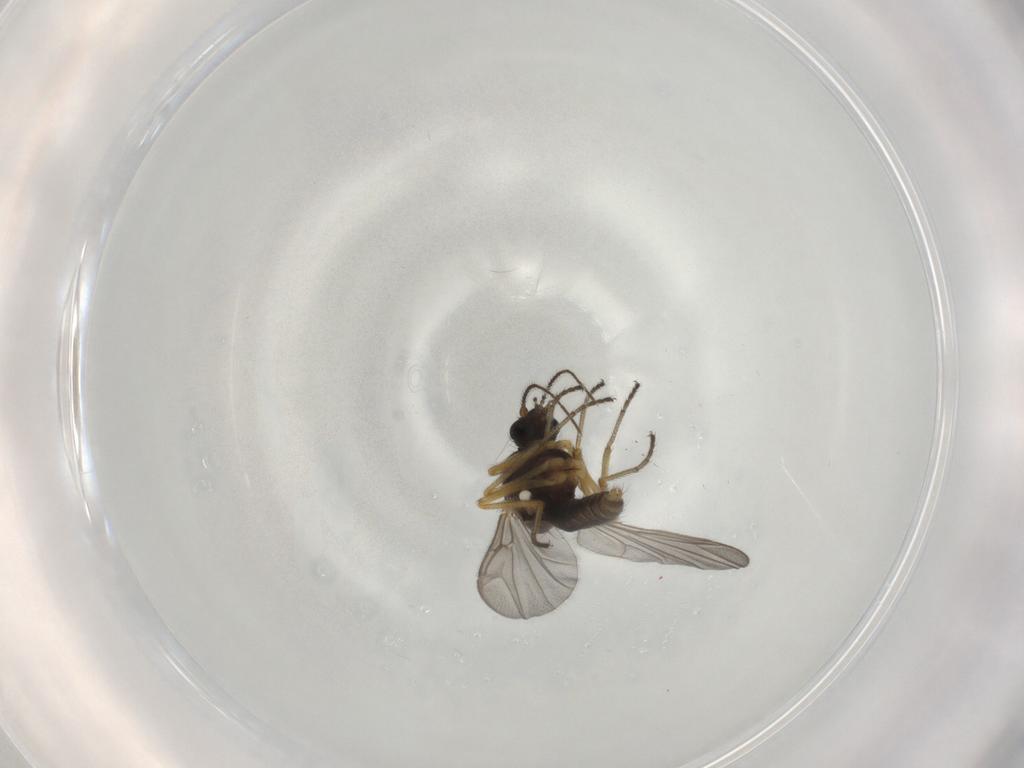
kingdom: Animalia
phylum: Arthropoda
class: Insecta
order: Diptera
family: Ceratopogonidae
